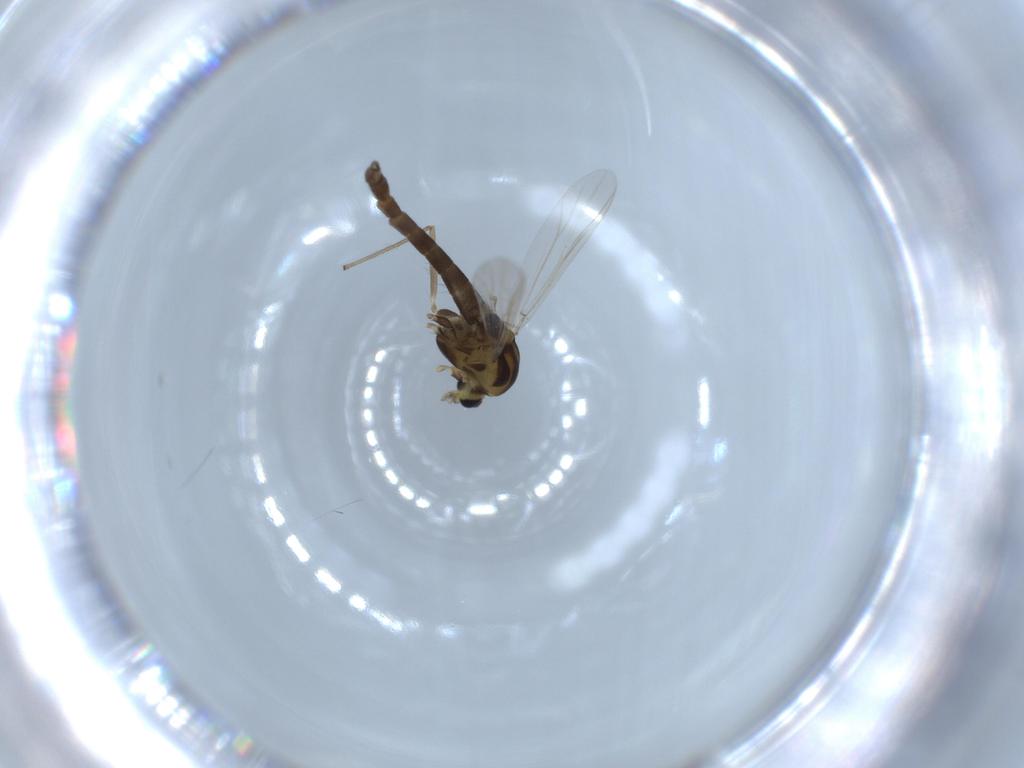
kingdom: Animalia
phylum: Arthropoda
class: Insecta
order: Diptera
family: Chironomidae
